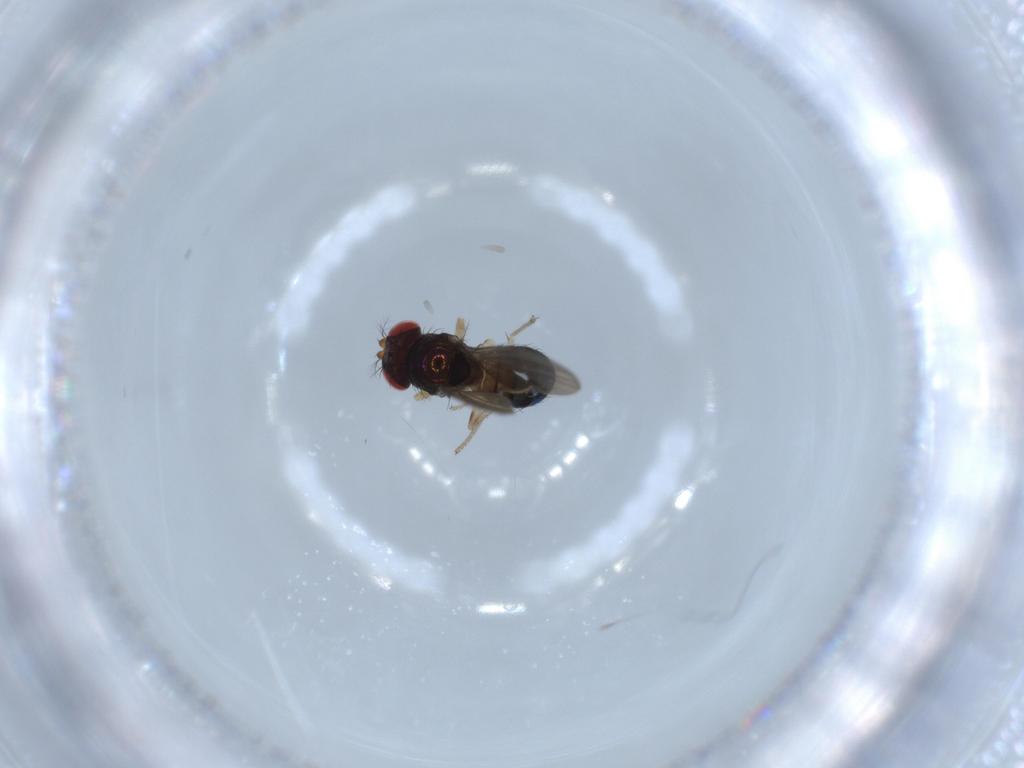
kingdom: Animalia
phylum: Arthropoda
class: Insecta
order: Diptera
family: Drosophilidae
